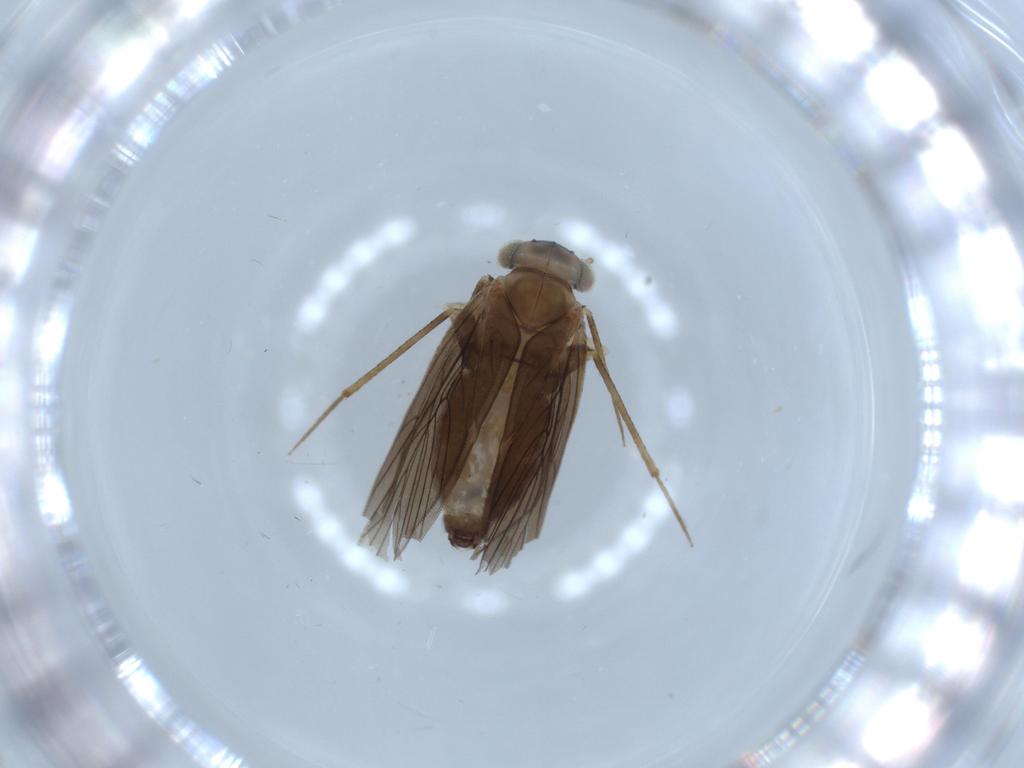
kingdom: Animalia
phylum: Arthropoda
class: Insecta
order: Psocodea
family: Lepidopsocidae
